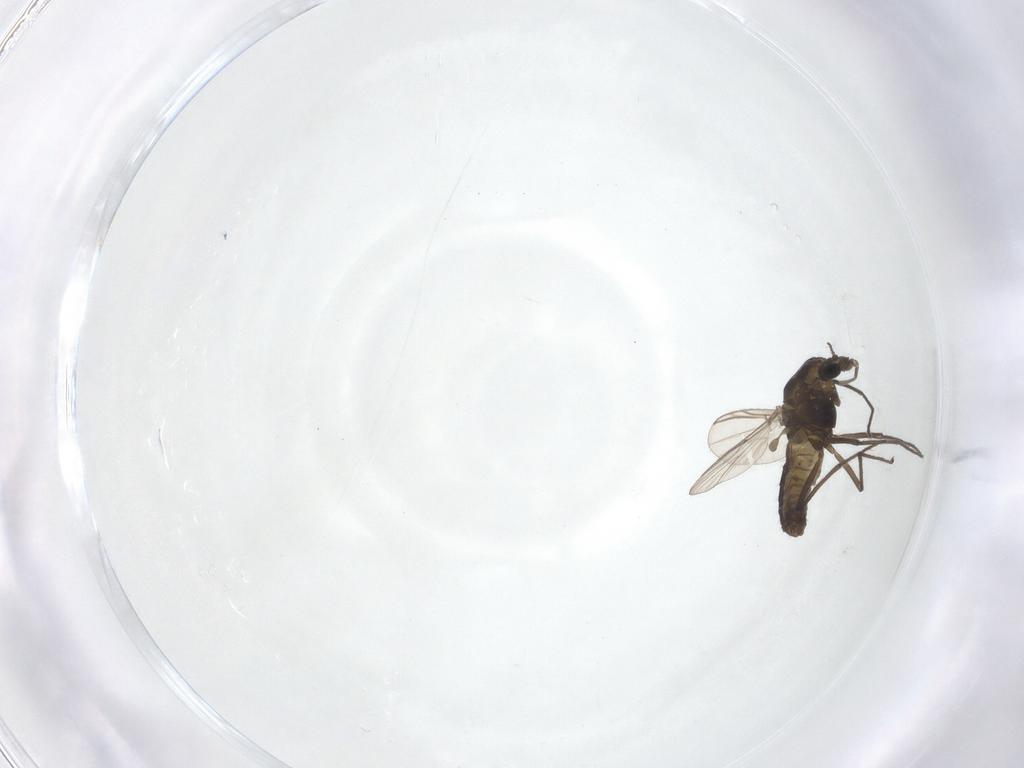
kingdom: Animalia
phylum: Arthropoda
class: Insecta
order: Diptera
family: Chironomidae
